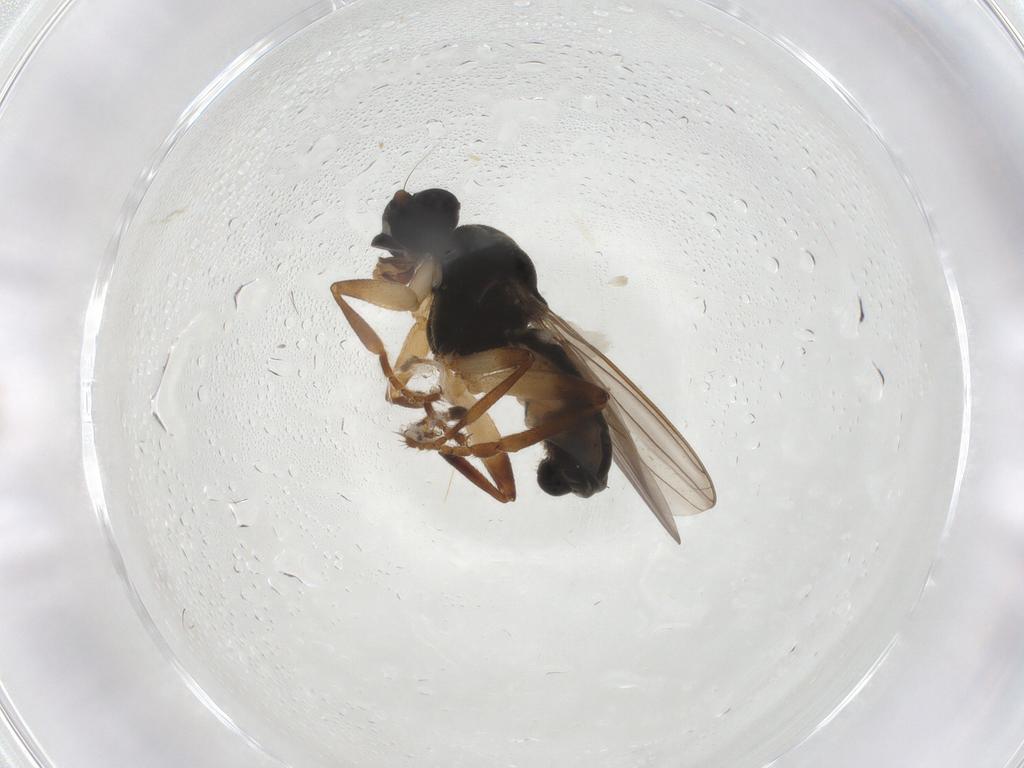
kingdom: Animalia
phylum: Arthropoda
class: Insecta
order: Diptera
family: Sphaeroceridae
